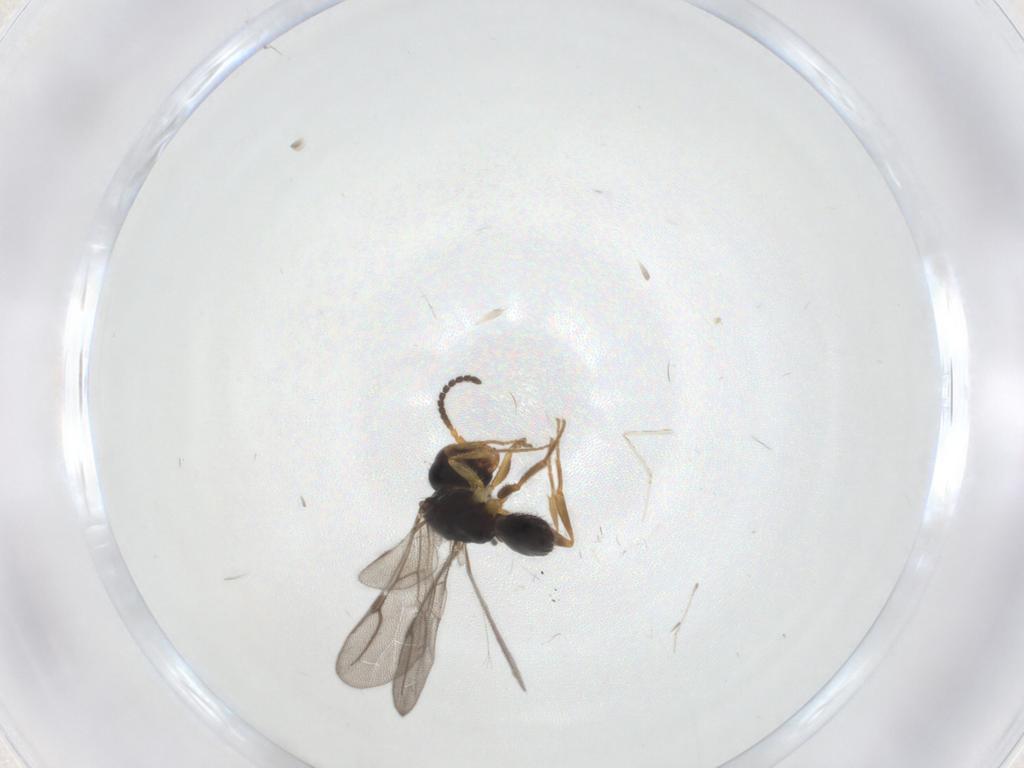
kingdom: Animalia
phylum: Arthropoda
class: Insecta
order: Hymenoptera
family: Bethylidae
